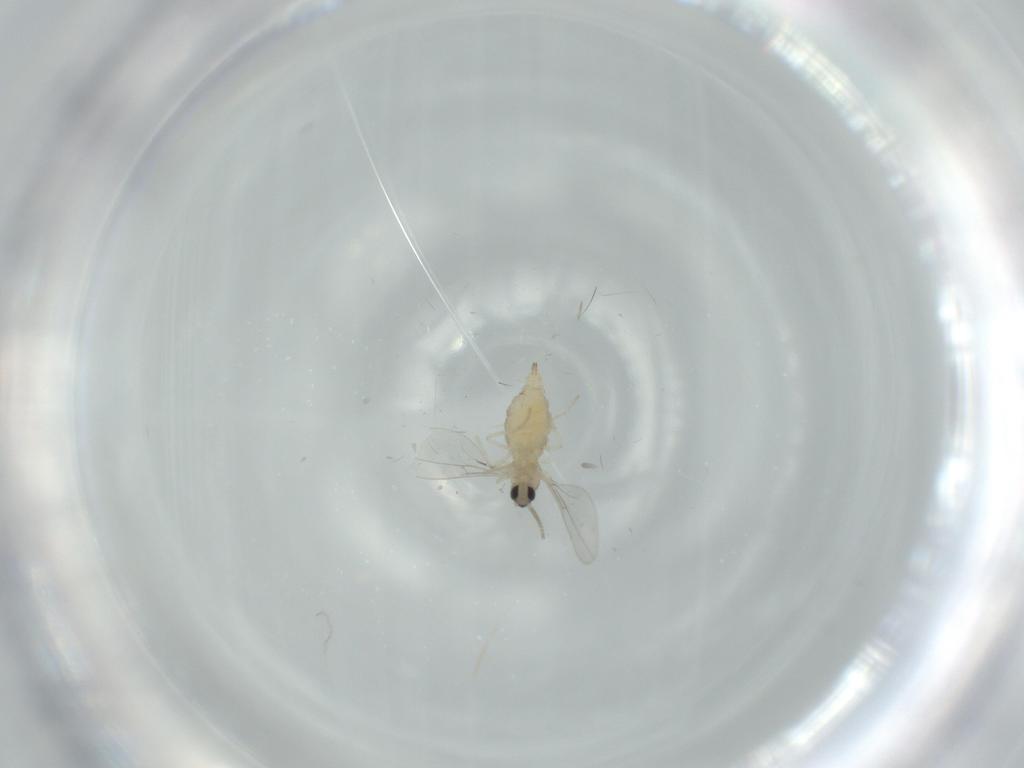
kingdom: Animalia
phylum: Arthropoda
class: Insecta
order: Diptera
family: Cecidomyiidae
